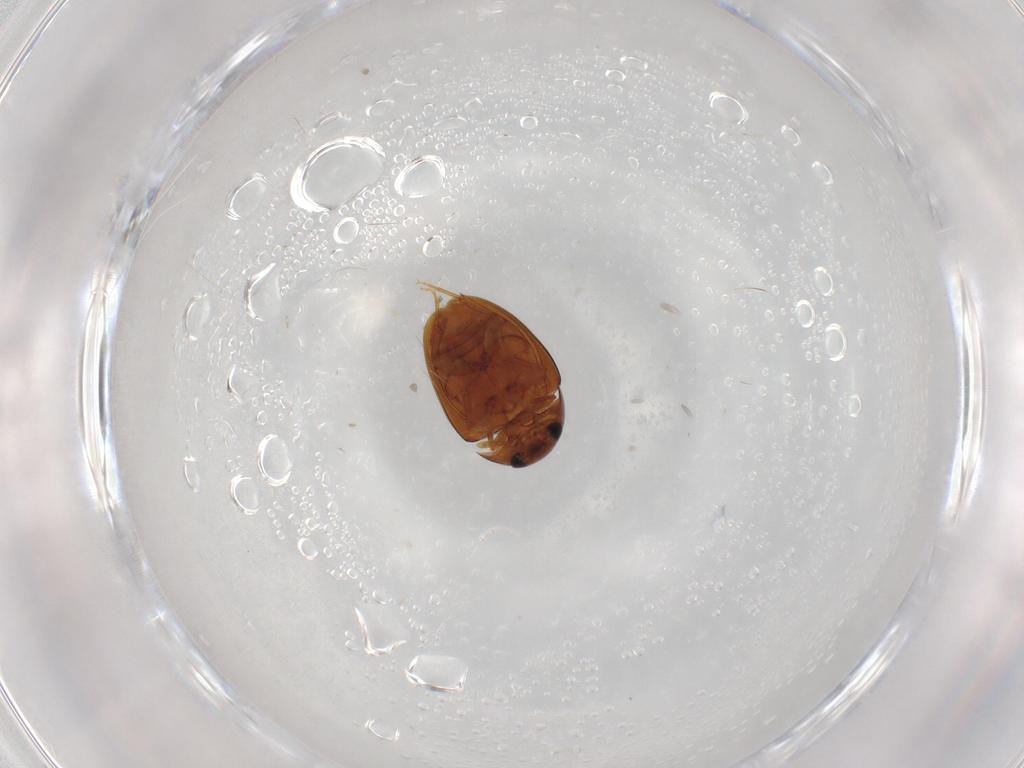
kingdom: Animalia
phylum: Arthropoda
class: Insecta
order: Coleoptera
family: Phalacridae
